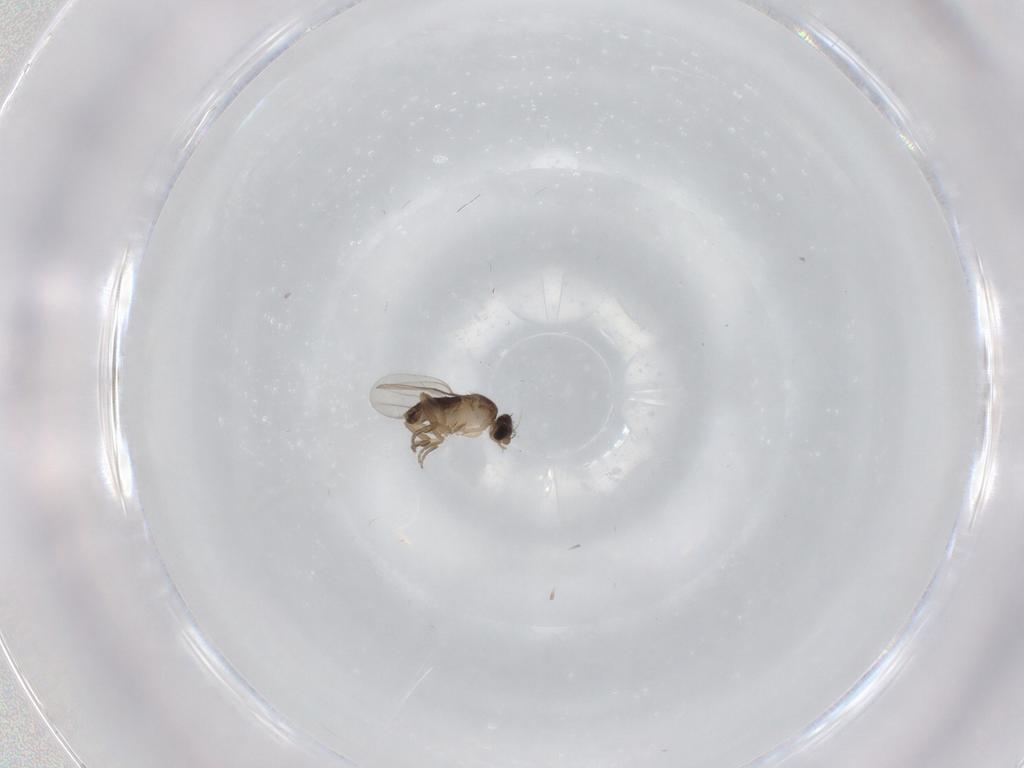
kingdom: Animalia
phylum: Arthropoda
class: Insecta
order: Diptera
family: Phoridae
